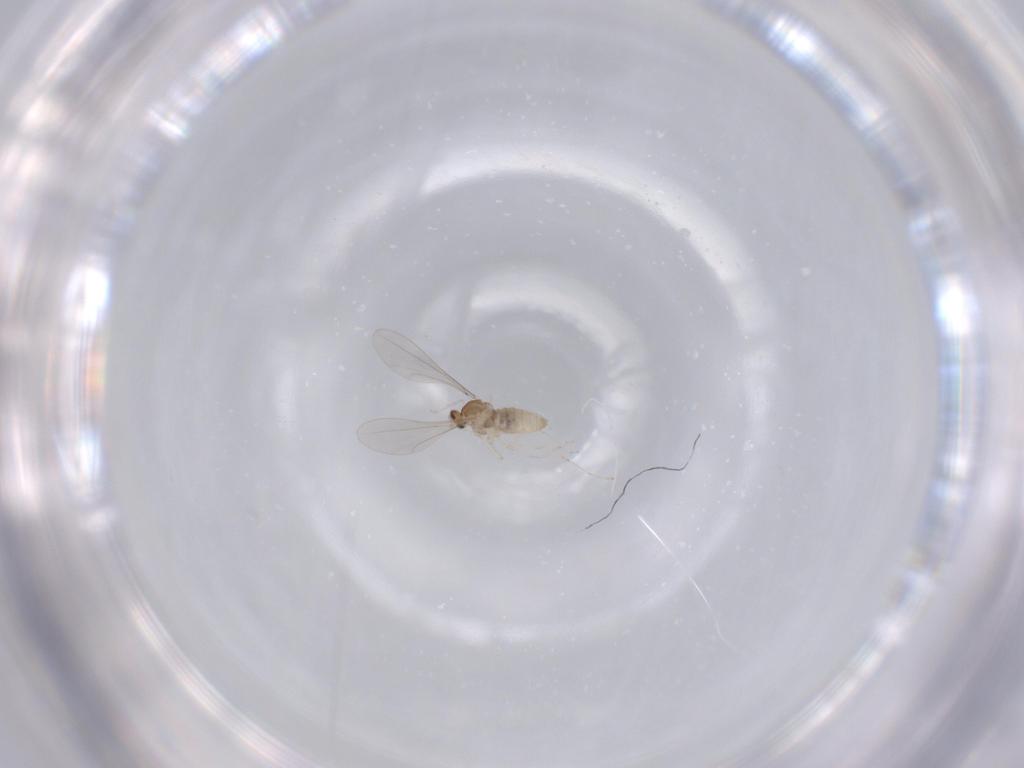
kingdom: Animalia
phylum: Arthropoda
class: Insecta
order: Diptera
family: Cecidomyiidae
